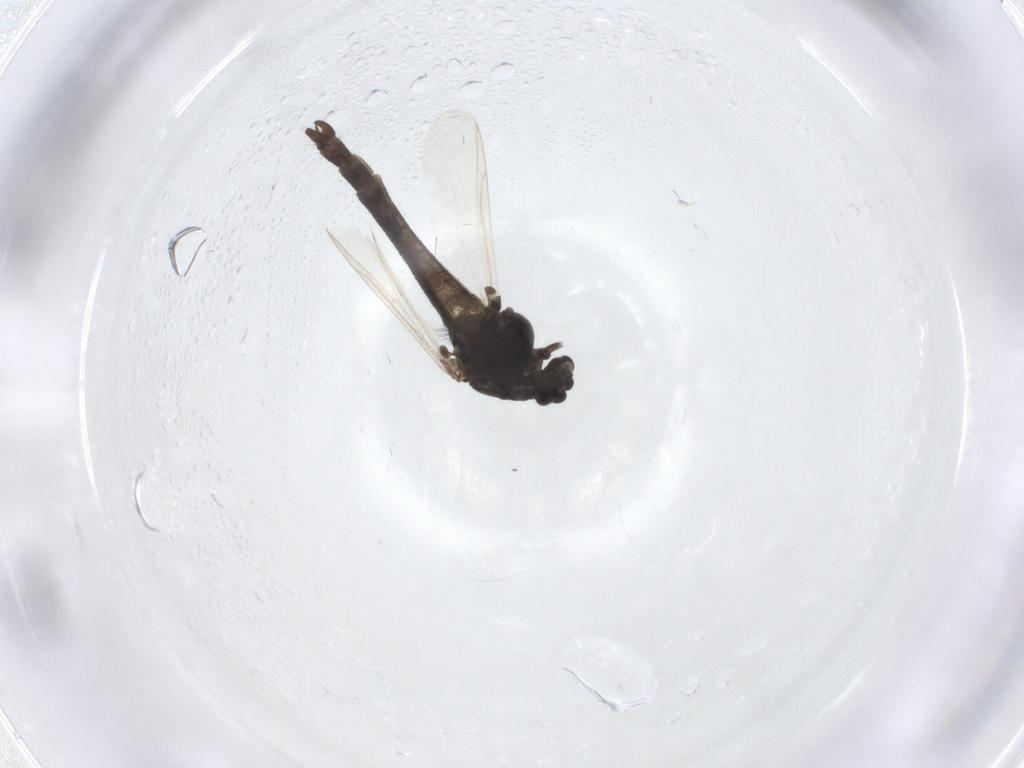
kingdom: Animalia
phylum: Arthropoda
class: Insecta
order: Diptera
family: Chironomidae
